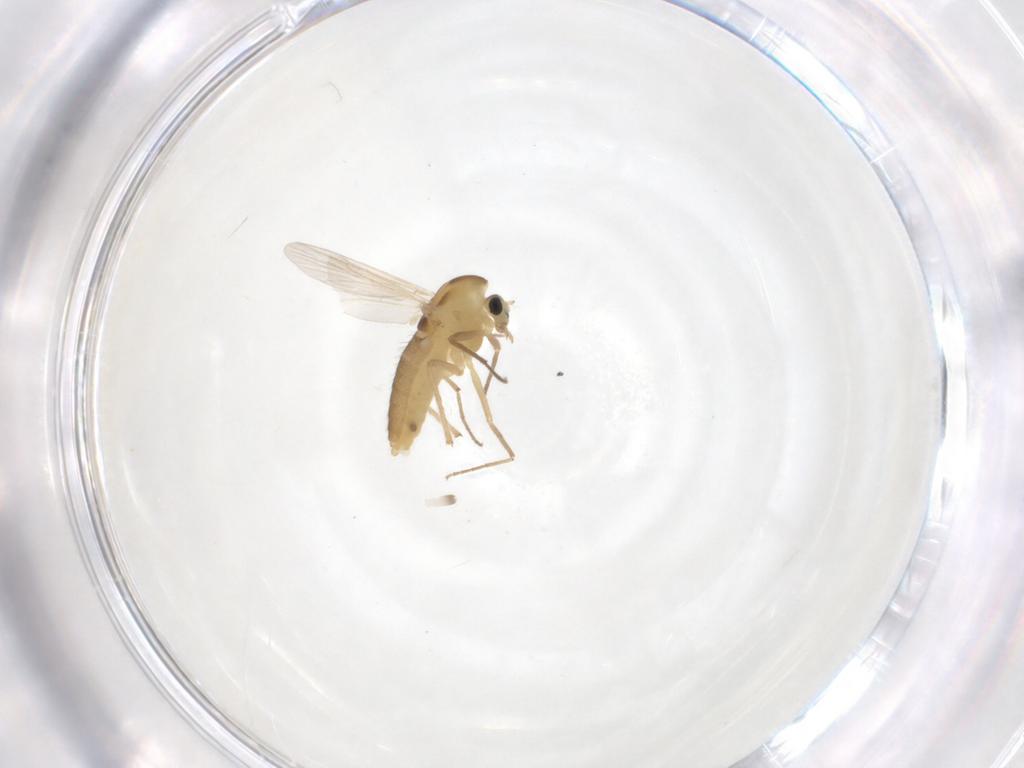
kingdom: Animalia
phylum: Arthropoda
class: Insecta
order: Diptera
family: Chironomidae
